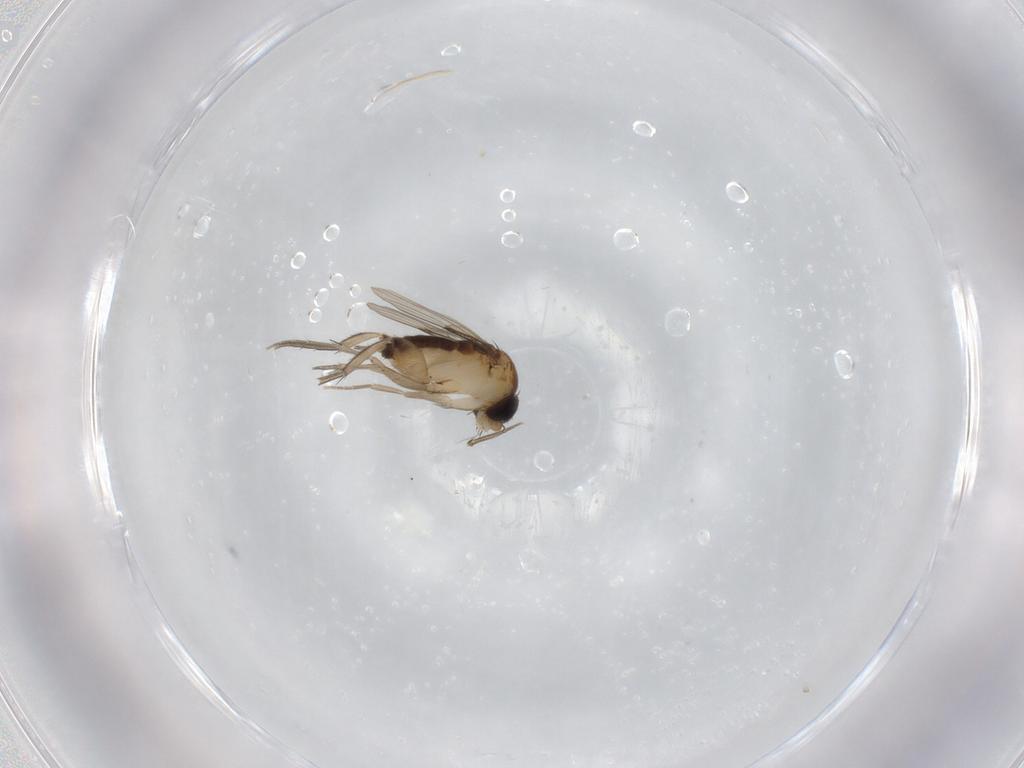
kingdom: Animalia
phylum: Arthropoda
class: Insecta
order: Diptera
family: Phoridae
